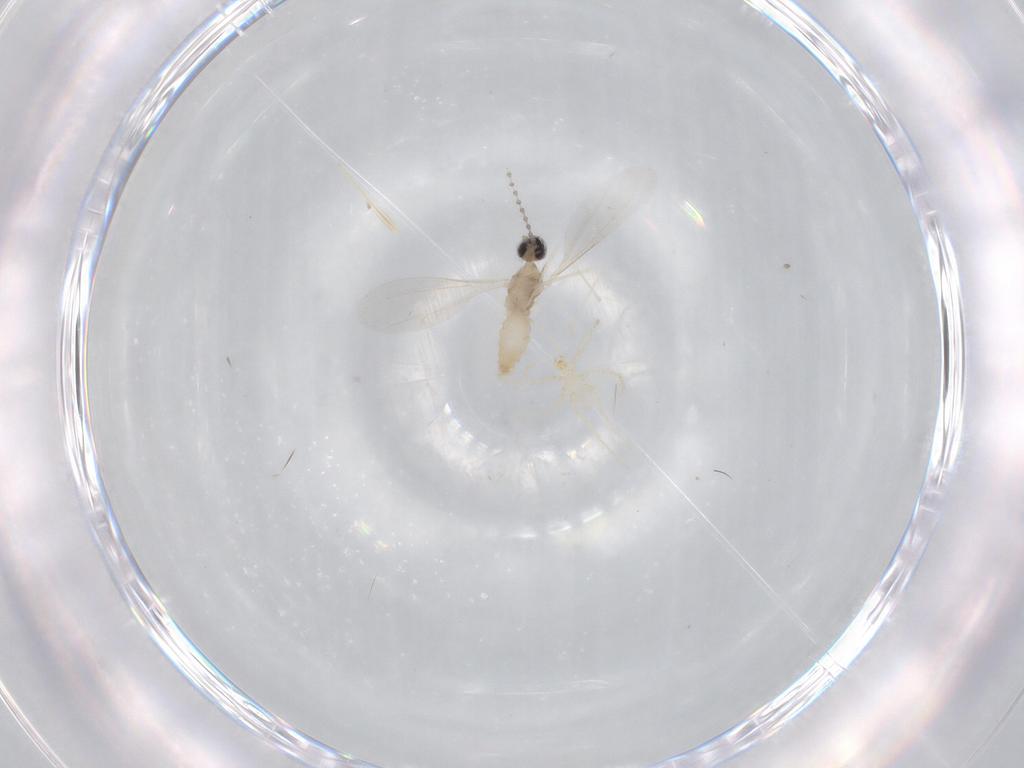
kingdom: Animalia
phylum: Arthropoda
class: Insecta
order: Diptera
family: Cecidomyiidae
